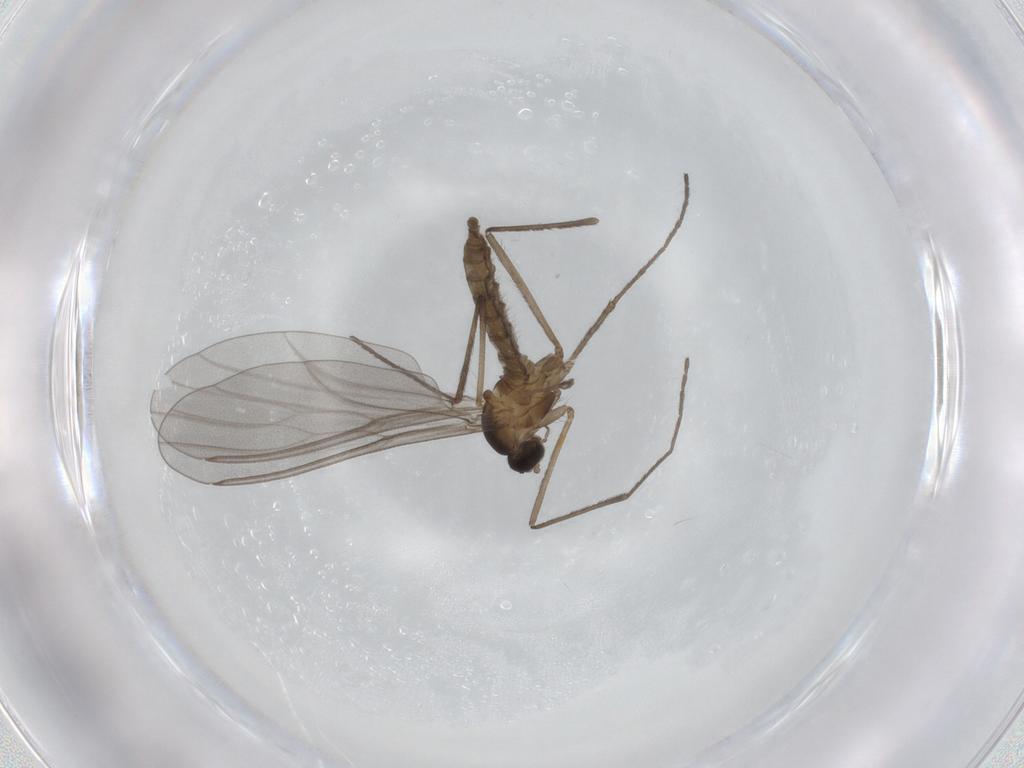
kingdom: Animalia
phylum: Arthropoda
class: Insecta
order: Diptera
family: Cecidomyiidae
